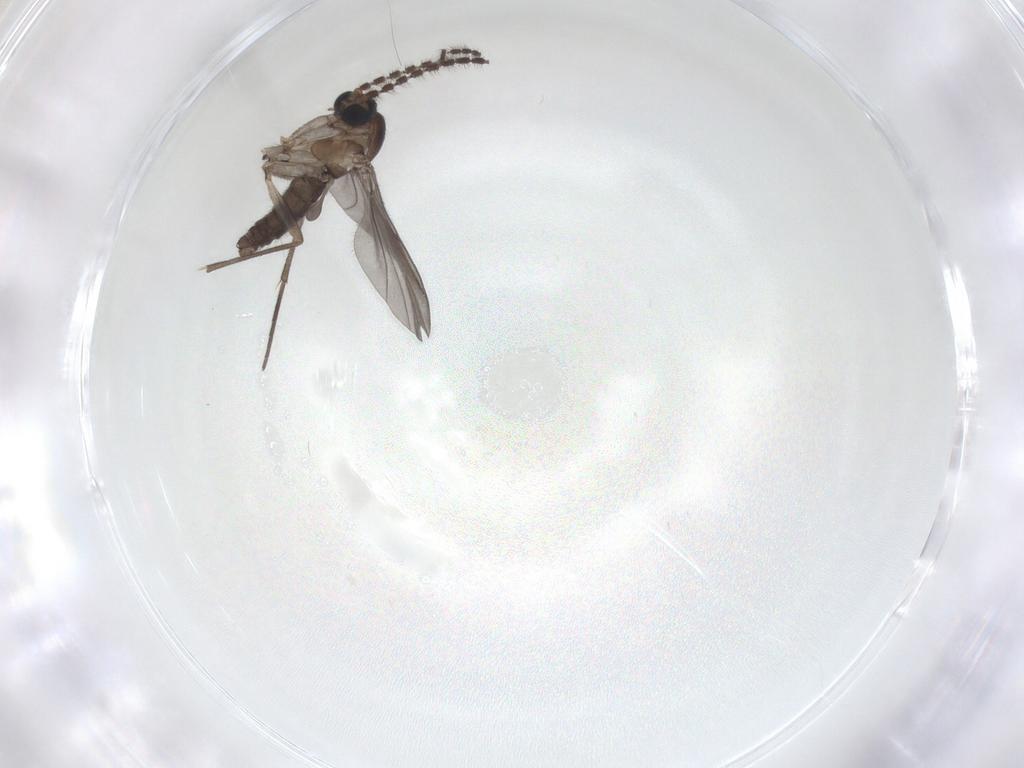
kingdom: Animalia
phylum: Arthropoda
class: Insecta
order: Diptera
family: Sciaridae
